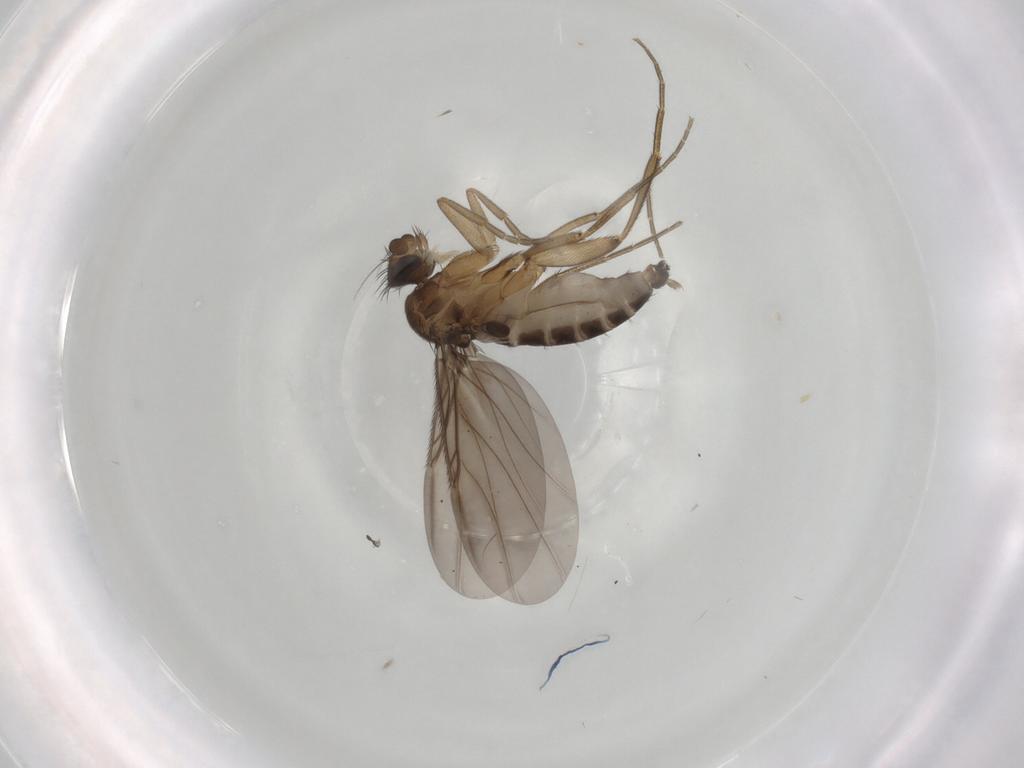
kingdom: Animalia
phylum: Arthropoda
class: Insecta
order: Diptera
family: Phoridae
